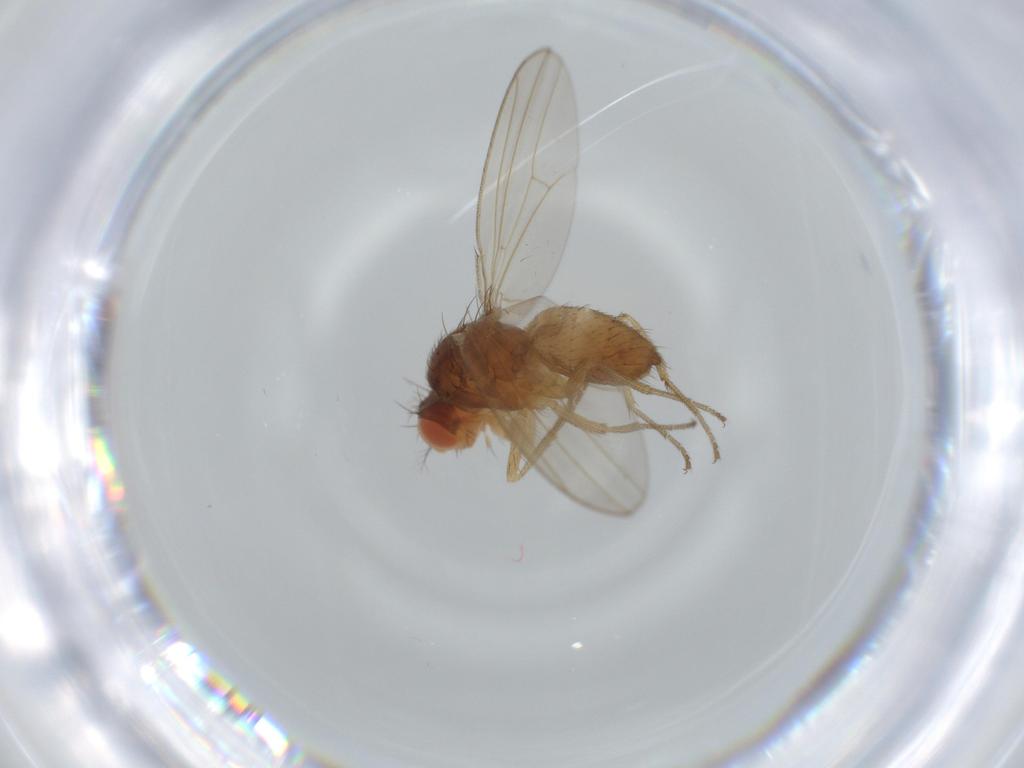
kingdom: Animalia
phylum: Arthropoda
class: Insecta
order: Diptera
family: Drosophilidae
